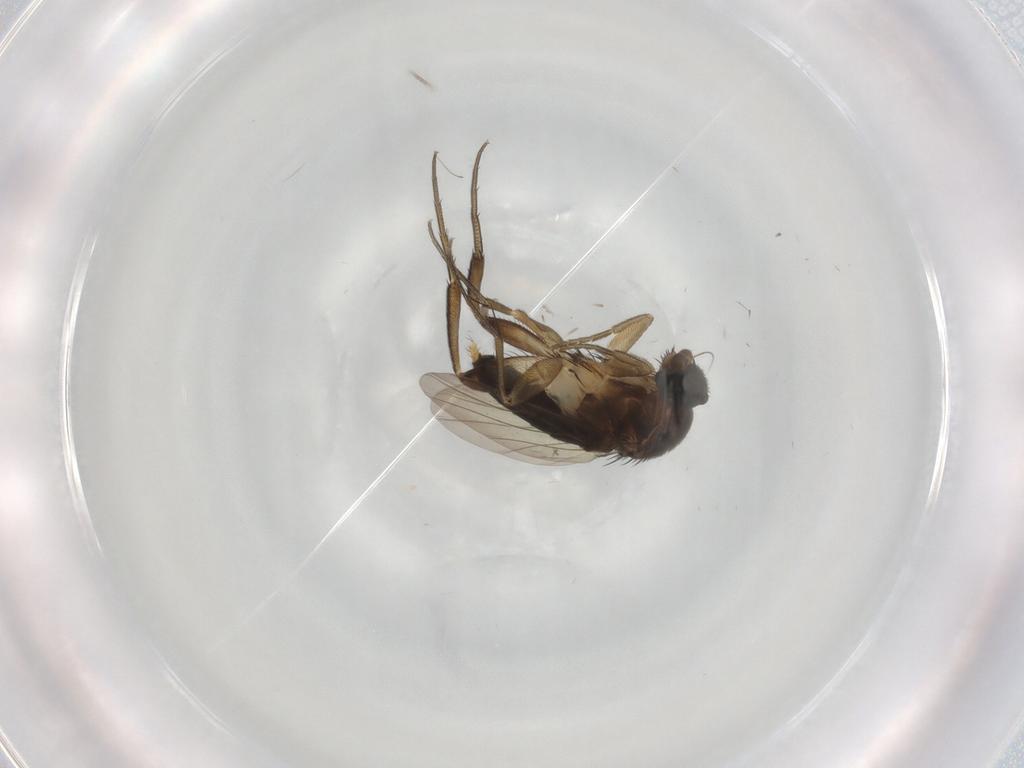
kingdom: Animalia
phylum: Arthropoda
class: Insecta
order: Diptera
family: Phoridae
